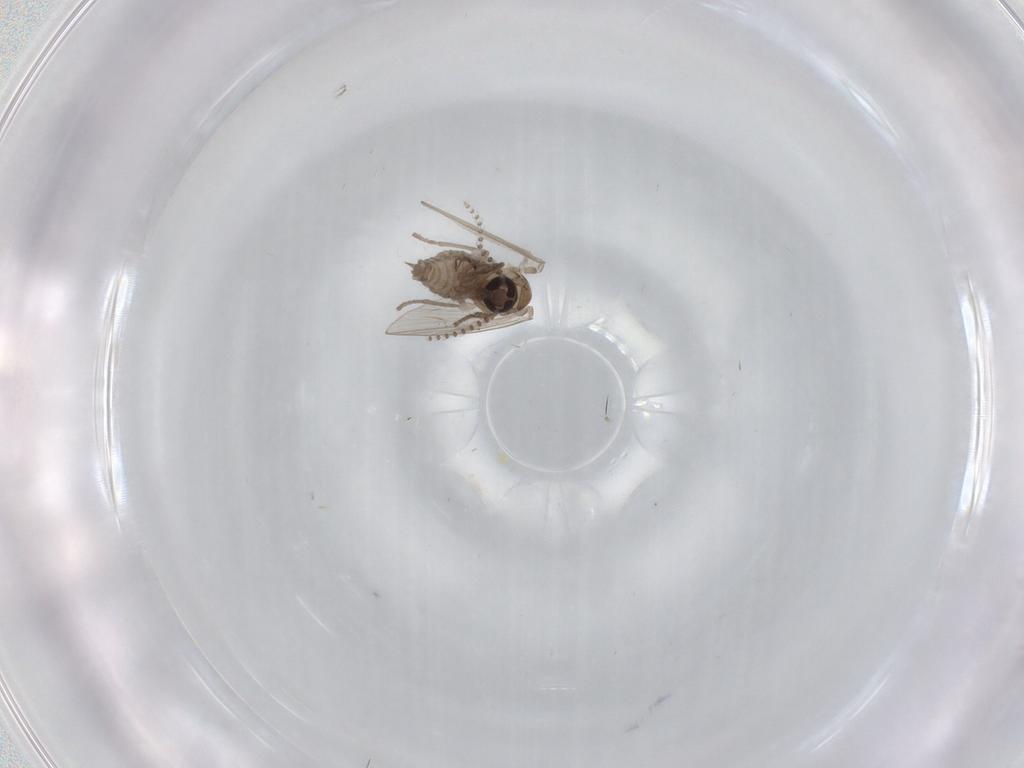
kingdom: Animalia
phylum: Arthropoda
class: Insecta
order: Diptera
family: Psychodidae
